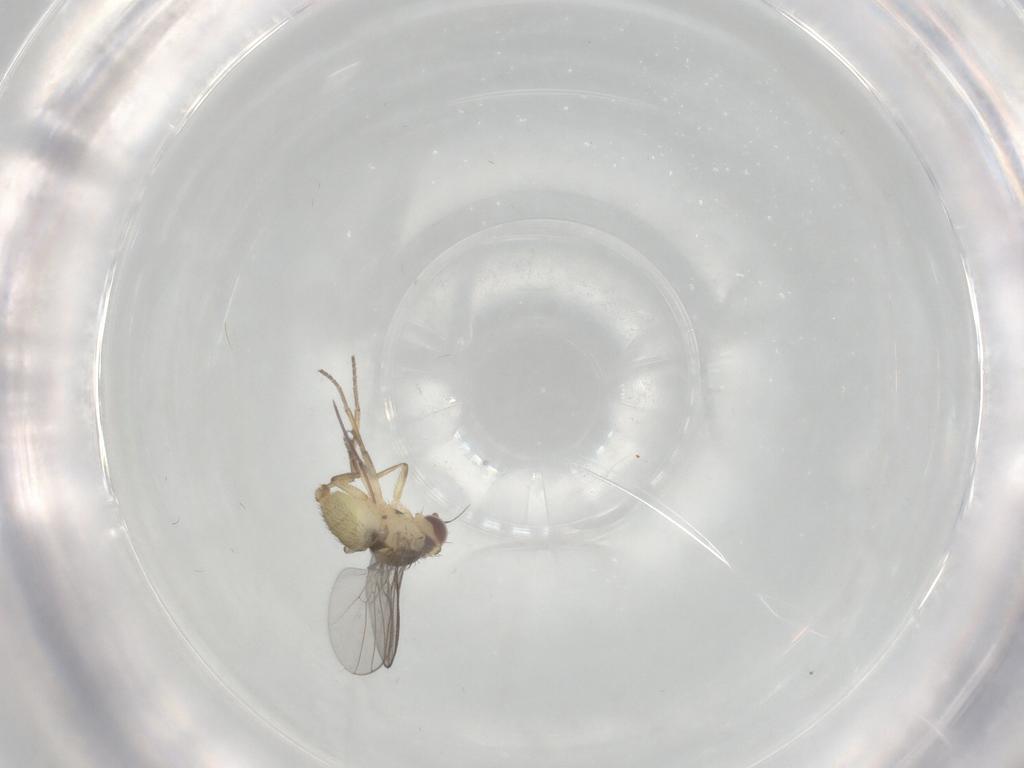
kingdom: Animalia
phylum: Arthropoda
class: Insecta
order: Diptera
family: Agromyzidae
